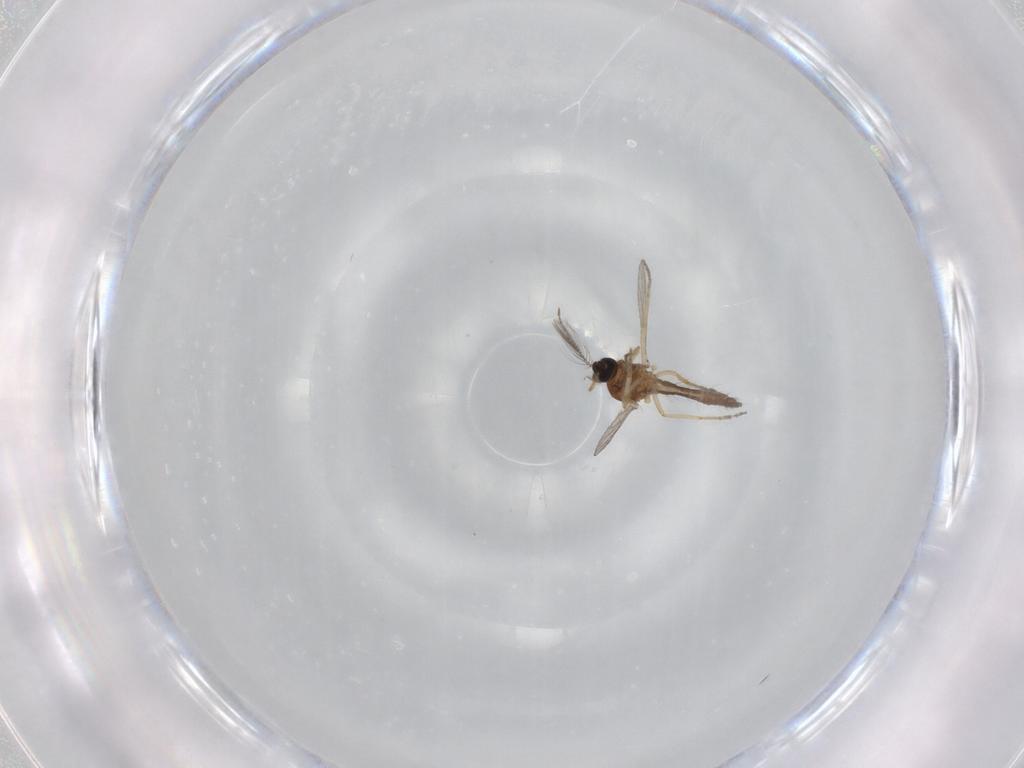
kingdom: Animalia
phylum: Arthropoda
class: Insecta
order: Diptera
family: Ceratopogonidae
